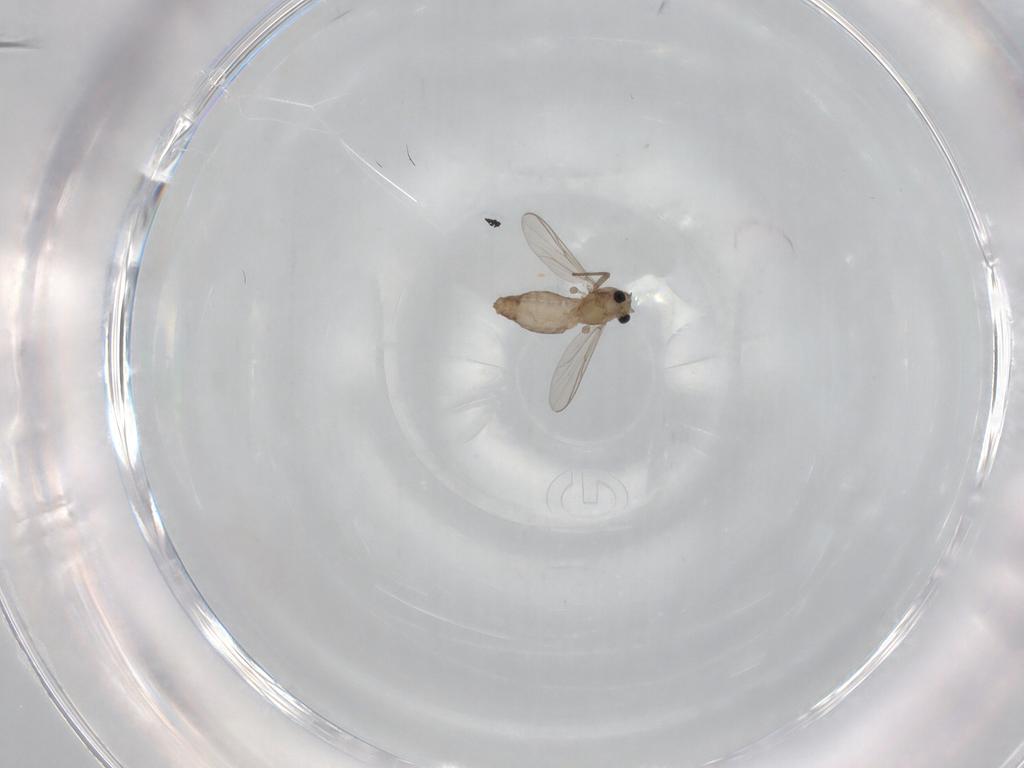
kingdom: Animalia
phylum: Arthropoda
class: Insecta
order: Diptera
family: Chironomidae
